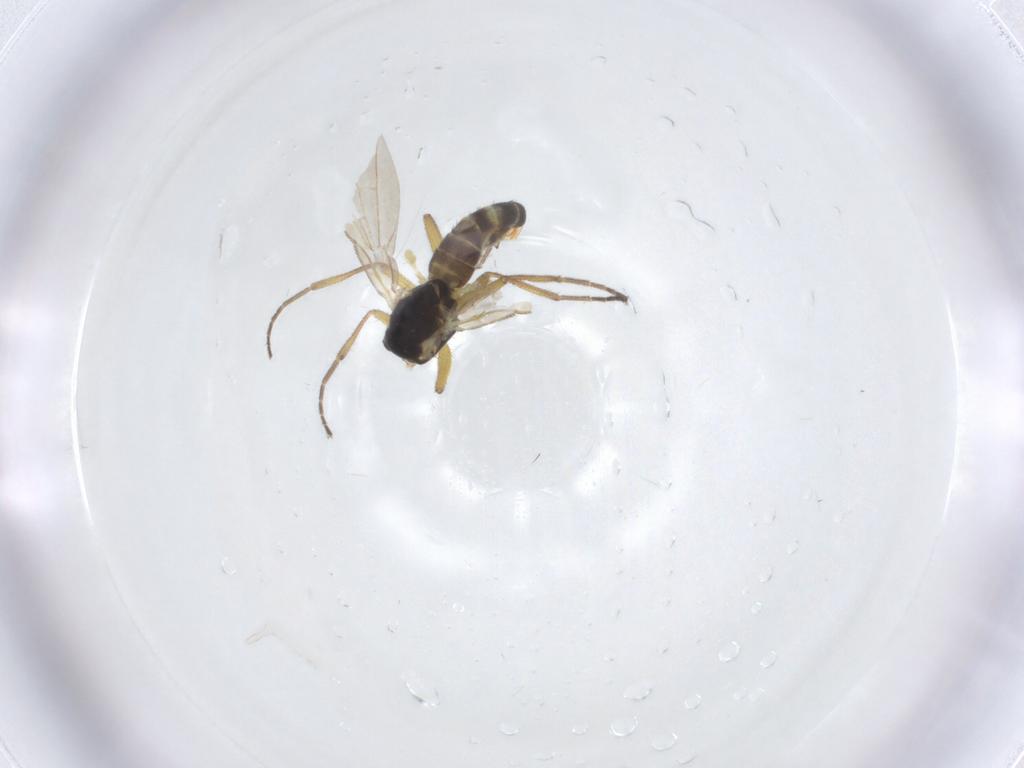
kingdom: Animalia
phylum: Arthropoda
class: Insecta
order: Diptera
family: Agromyzidae
